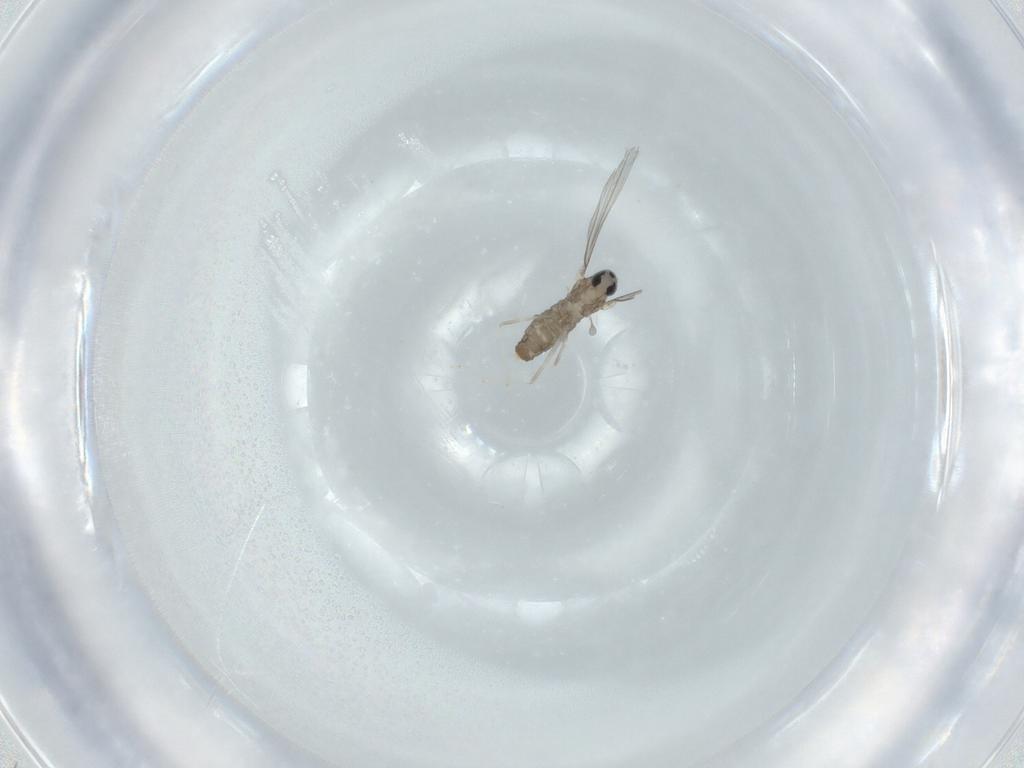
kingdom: Animalia
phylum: Arthropoda
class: Insecta
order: Diptera
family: Cecidomyiidae
